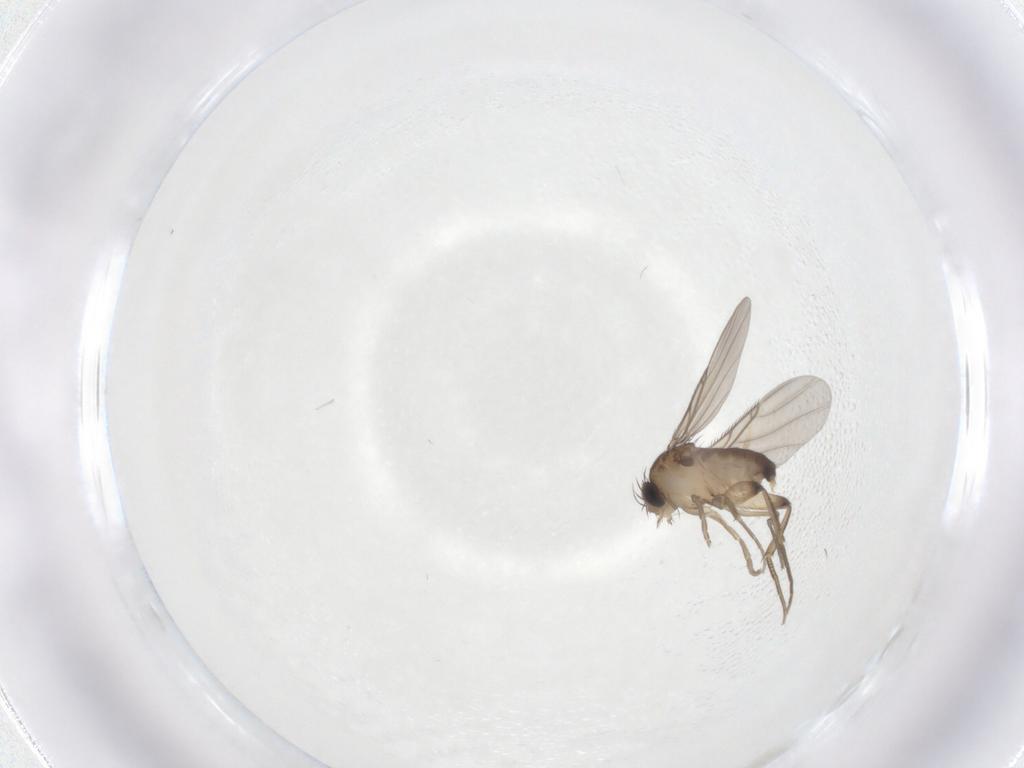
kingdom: Animalia
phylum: Arthropoda
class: Insecta
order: Diptera
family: Phoridae
